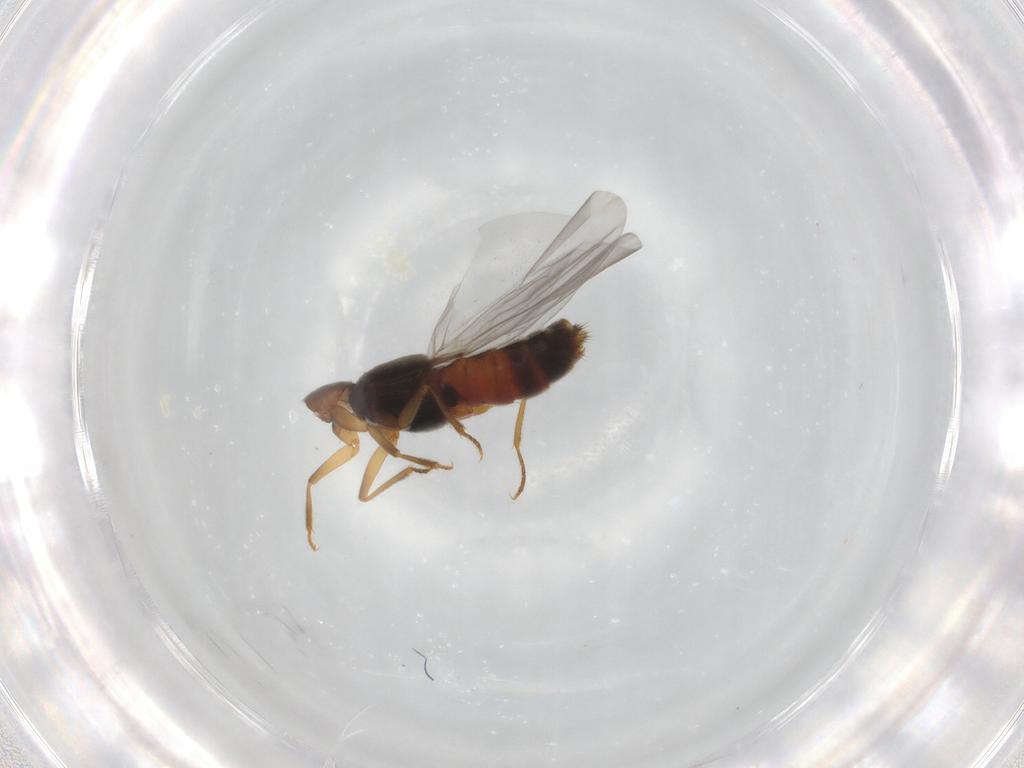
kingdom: Animalia
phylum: Arthropoda
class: Insecta
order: Coleoptera
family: Staphylinidae
